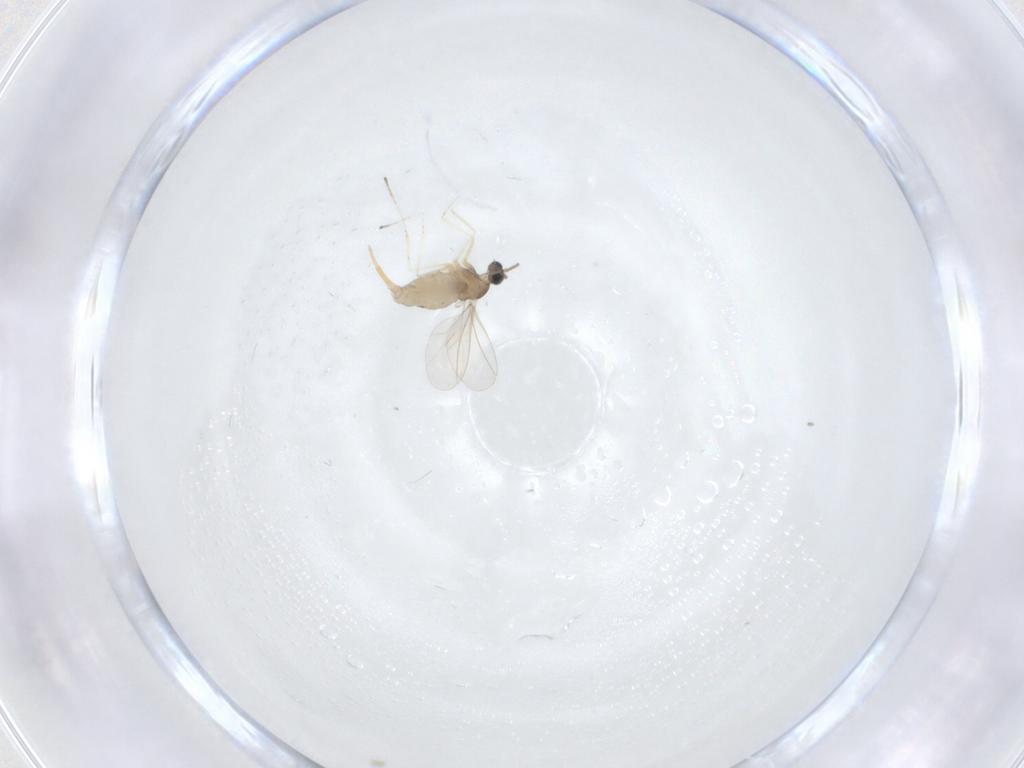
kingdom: Animalia
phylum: Arthropoda
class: Insecta
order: Diptera
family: Cecidomyiidae
